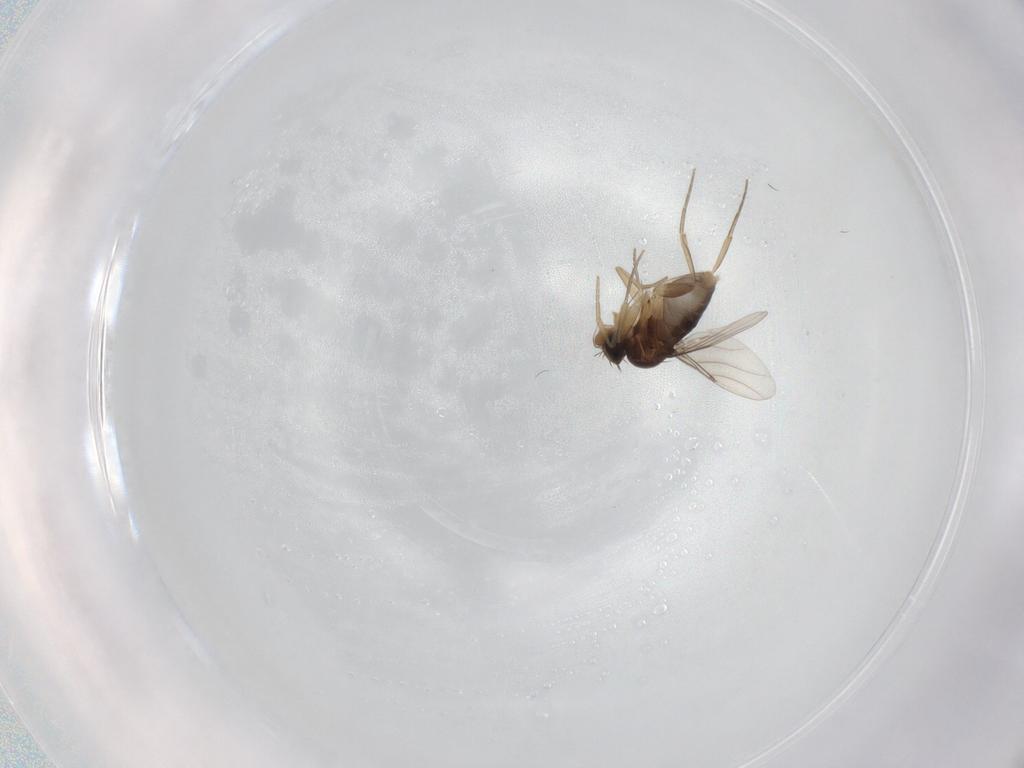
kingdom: Animalia
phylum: Arthropoda
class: Insecta
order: Diptera
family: Phoridae
